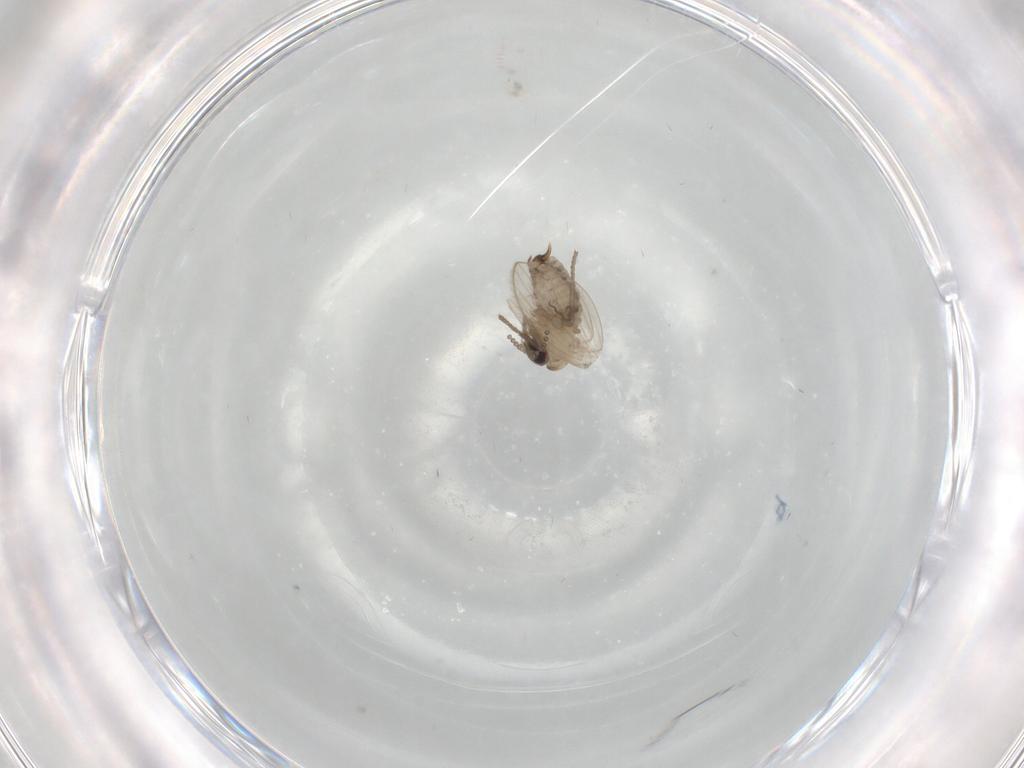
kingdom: Animalia
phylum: Arthropoda
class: Insecta
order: Diptera
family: Psychodidae
